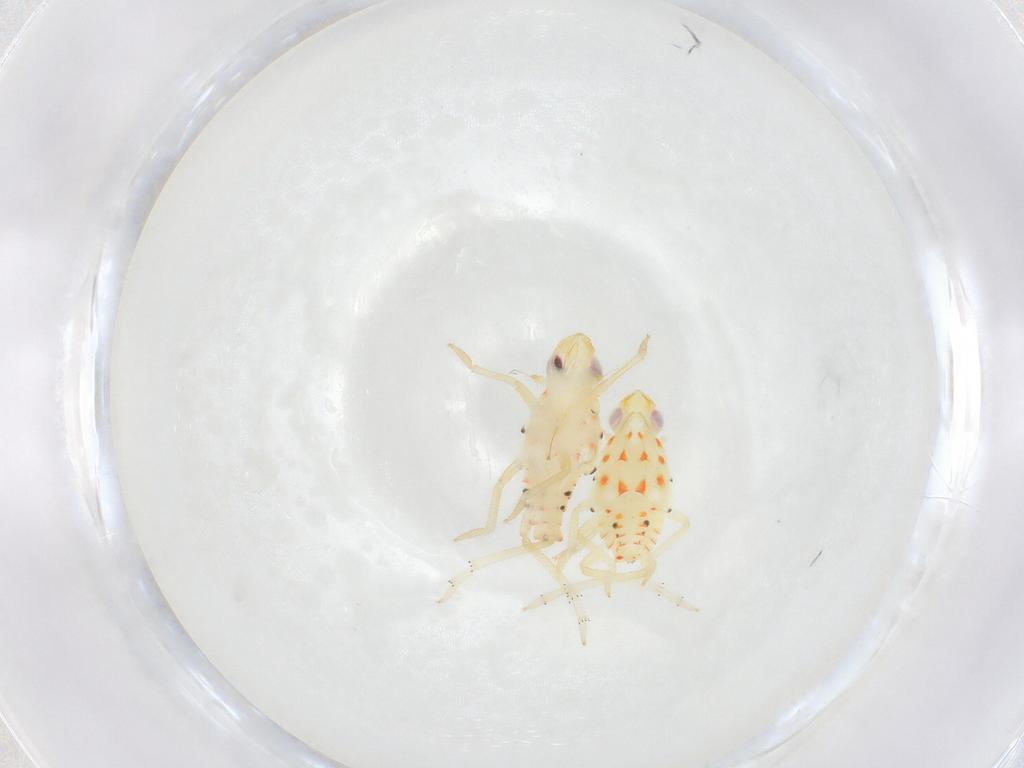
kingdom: Animalia
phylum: Arthropoda
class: Insecta
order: Hemiptera
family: Tropiduchidae
